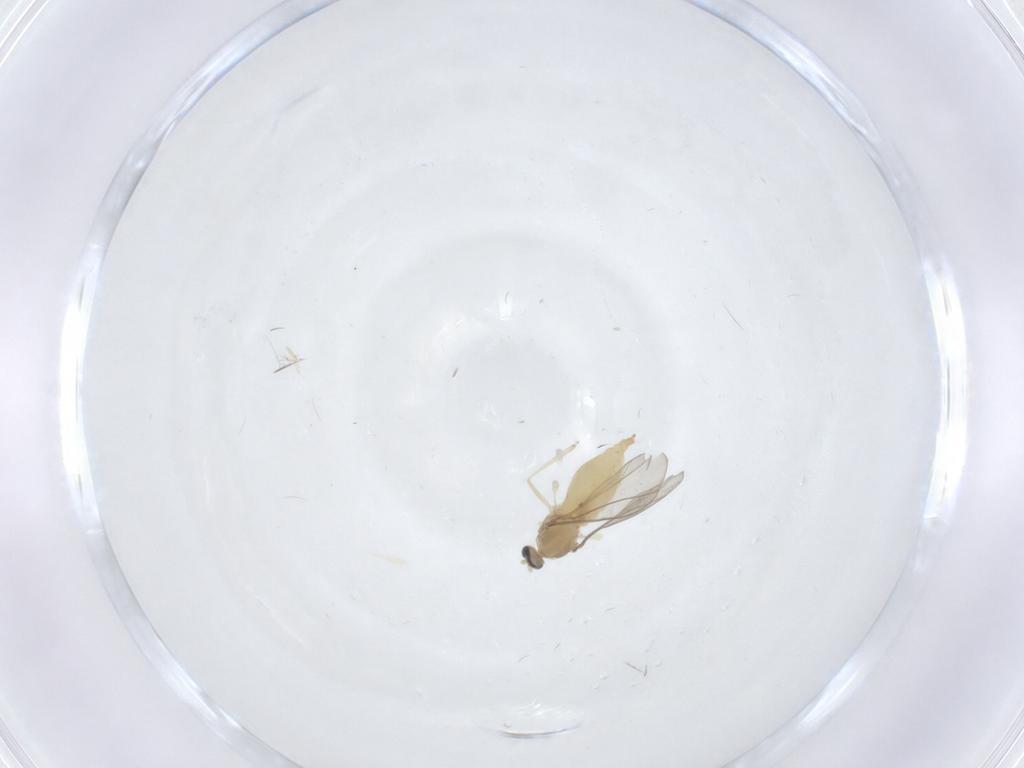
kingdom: Animalia
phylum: Arthropoda
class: Insecta
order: Diptera
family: Cecidomyiidae
